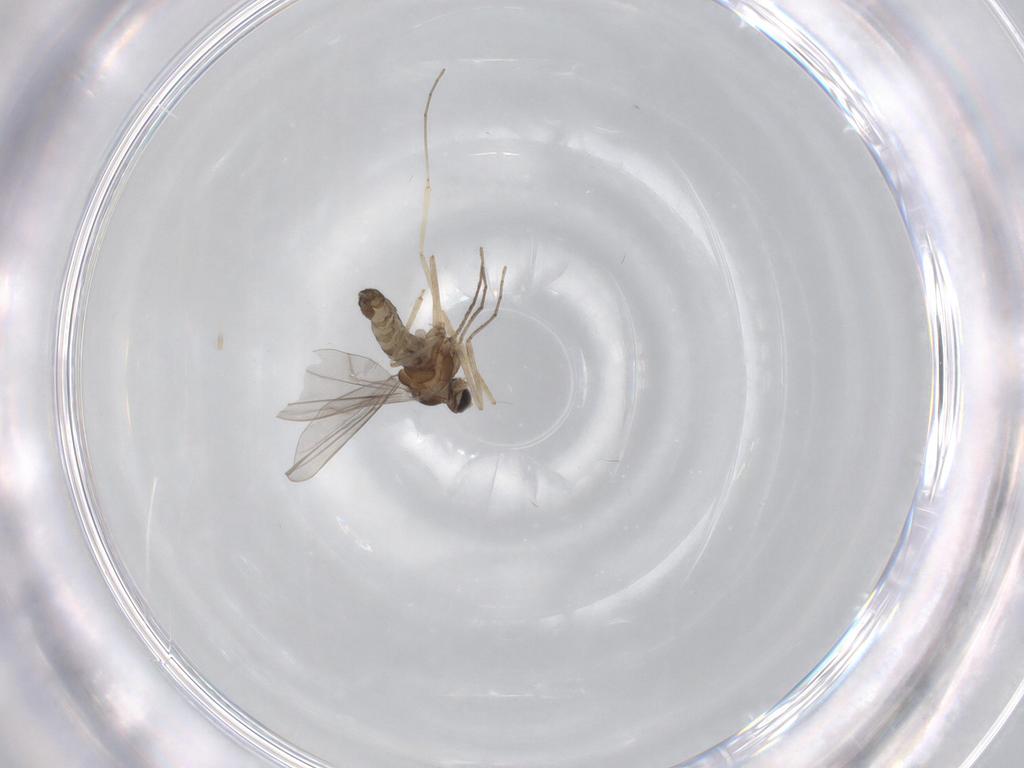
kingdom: Animalia
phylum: Arthropoda
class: Insecta
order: Diptera
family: Cecidomyiidae
